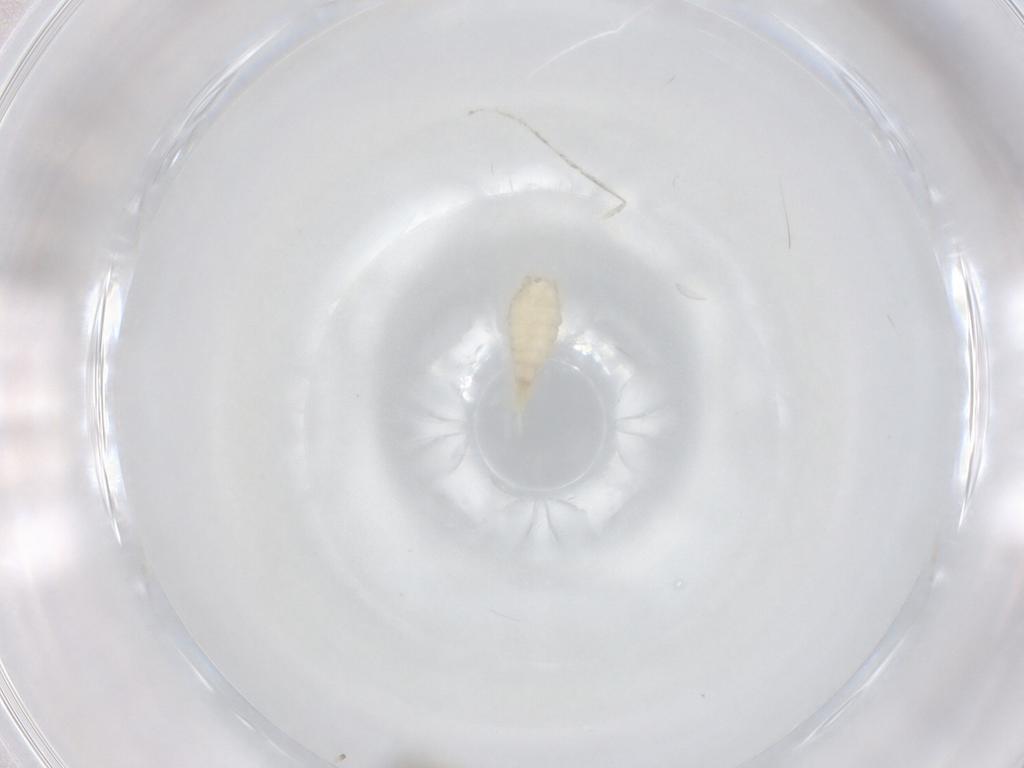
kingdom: Animalia
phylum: Arthropoda
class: Insecta
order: Diptera
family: Cecidomyiidae
